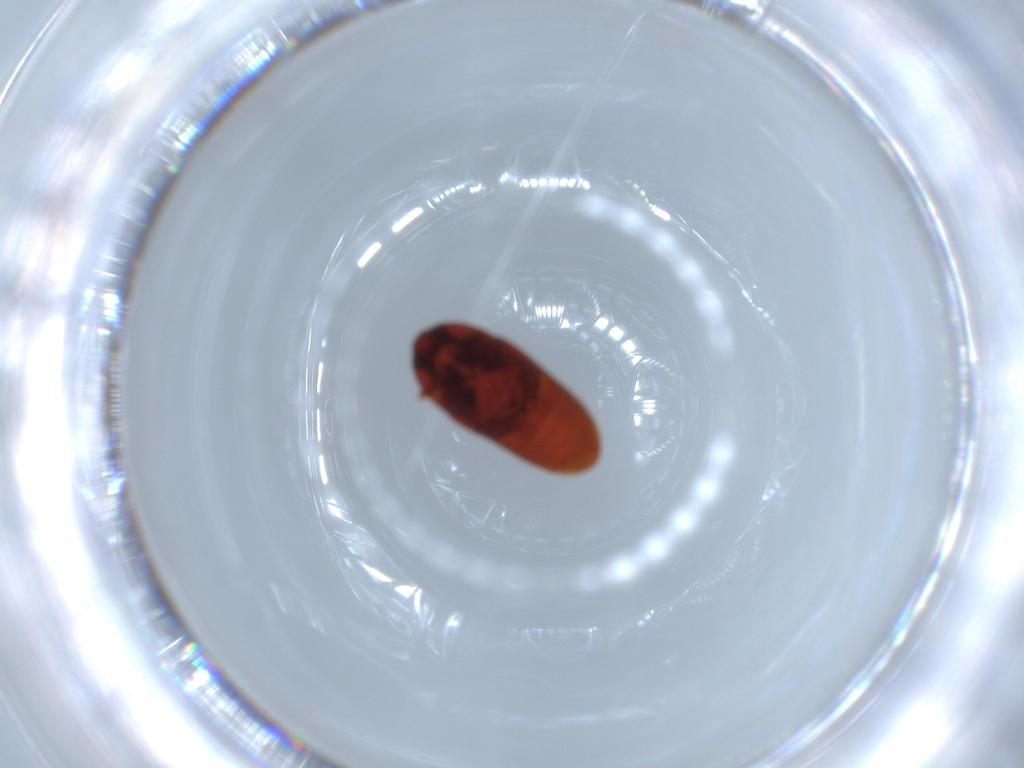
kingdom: Animalia
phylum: Arthropoda
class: Insecta
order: Coleoptera
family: Throscidae
